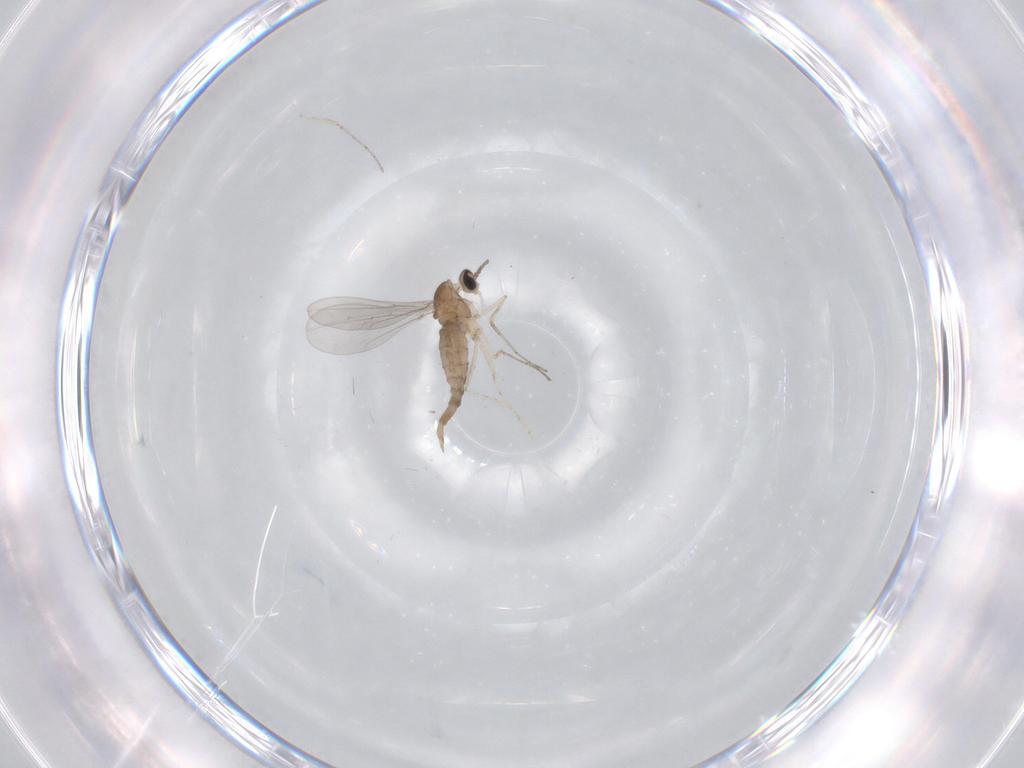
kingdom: Animalia
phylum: Arthropoda
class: Insecta
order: Diptera
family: Cecidomyiidae
